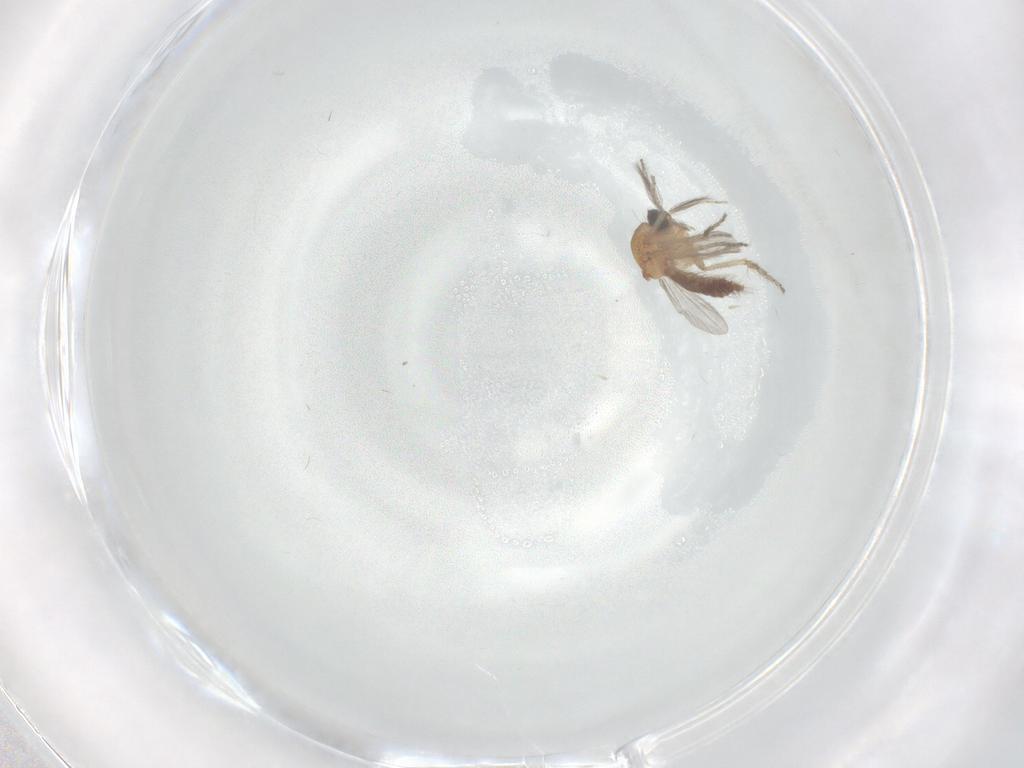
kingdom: Animalia
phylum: Arthropoda
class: Insecta
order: Diptera
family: Ceratopogonidae
